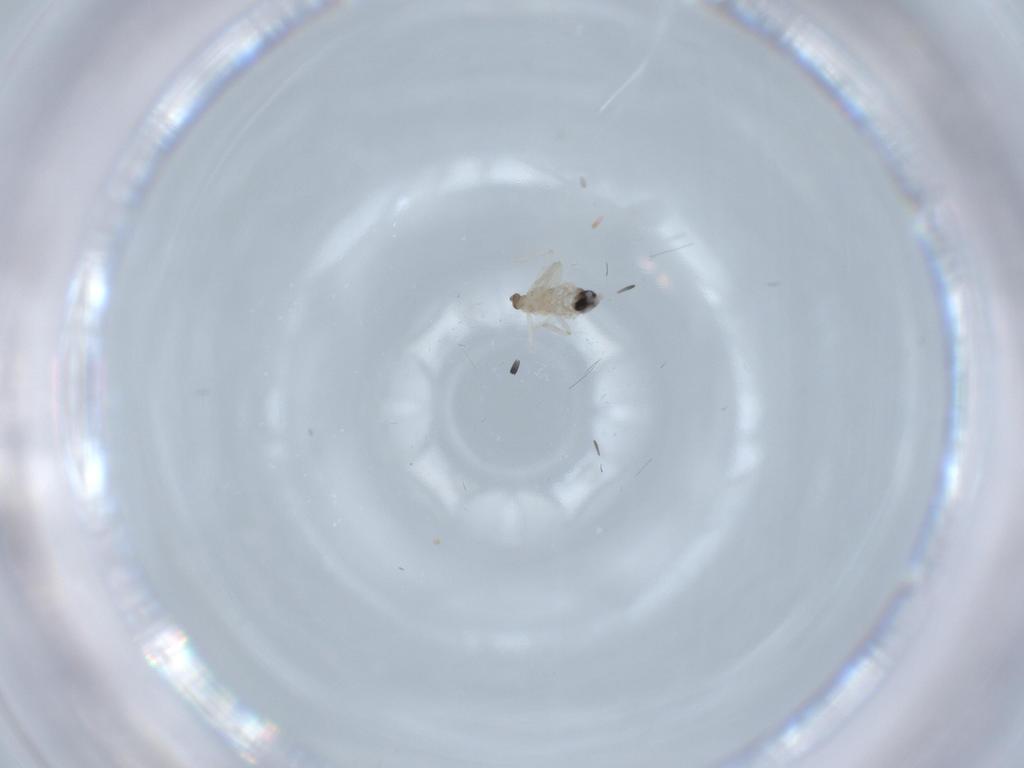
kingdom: Animalia
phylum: Arthropoda
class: Insecta
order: Diptera
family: Cecidomyiidae
